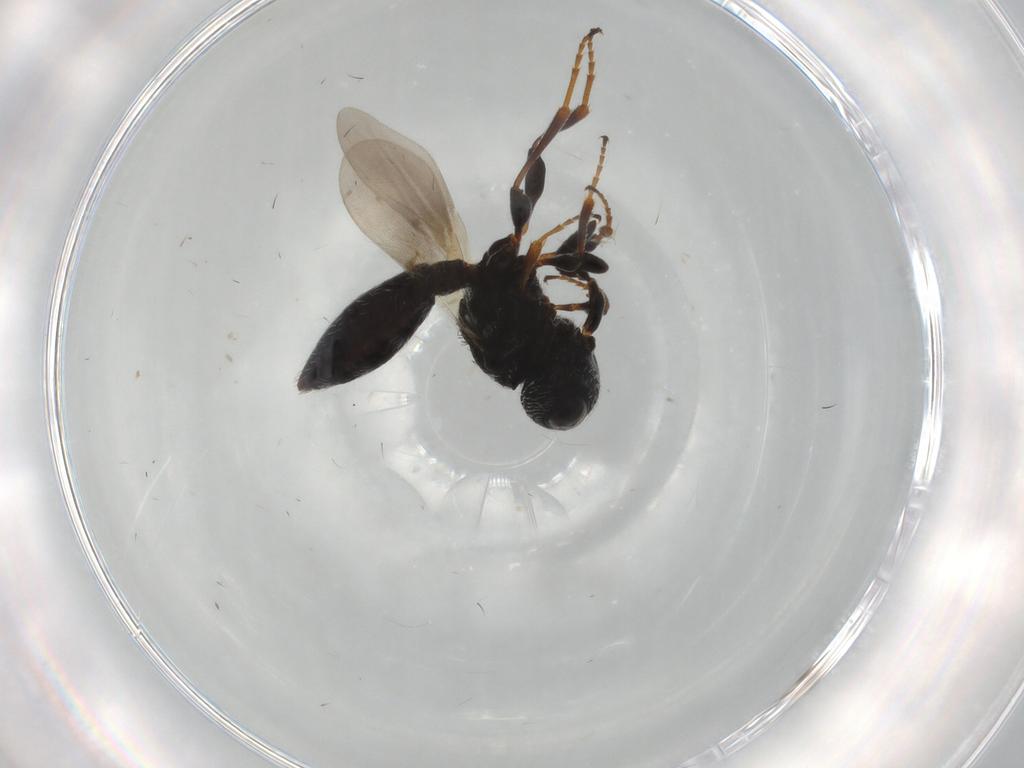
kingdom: Animalia
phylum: Arthropoda
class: Insecta
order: Hymenoptera
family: Scelionidae
